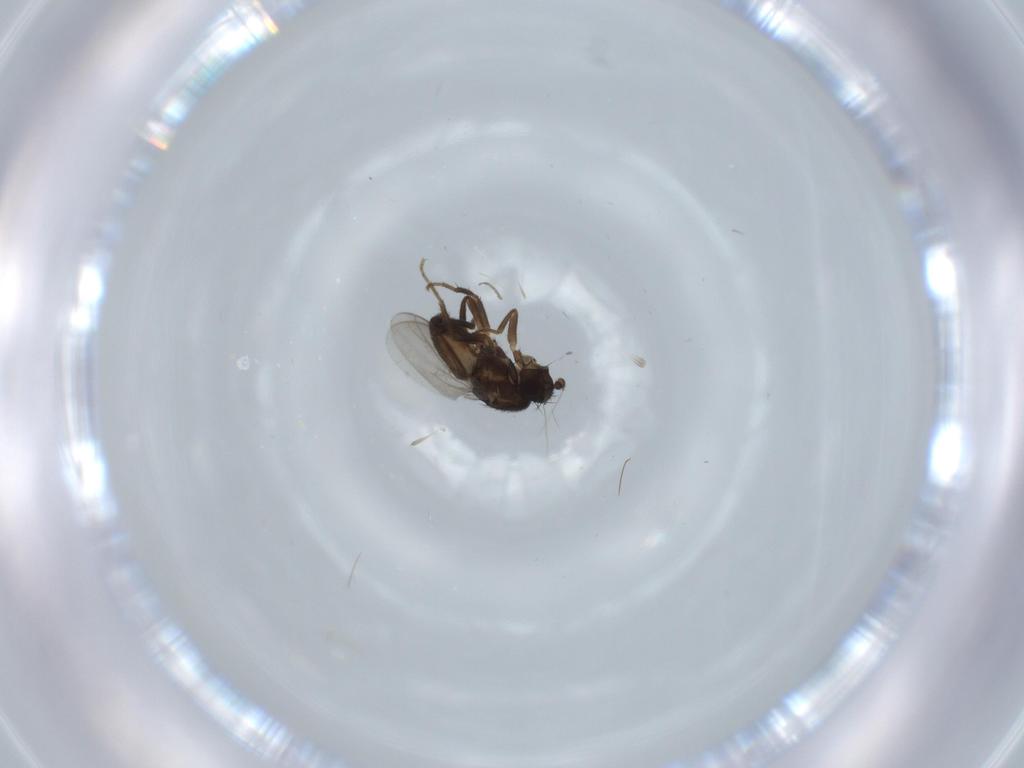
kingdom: Animalia
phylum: Arthropoda
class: Insecta
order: Diptera
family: Sphaeroceridae
